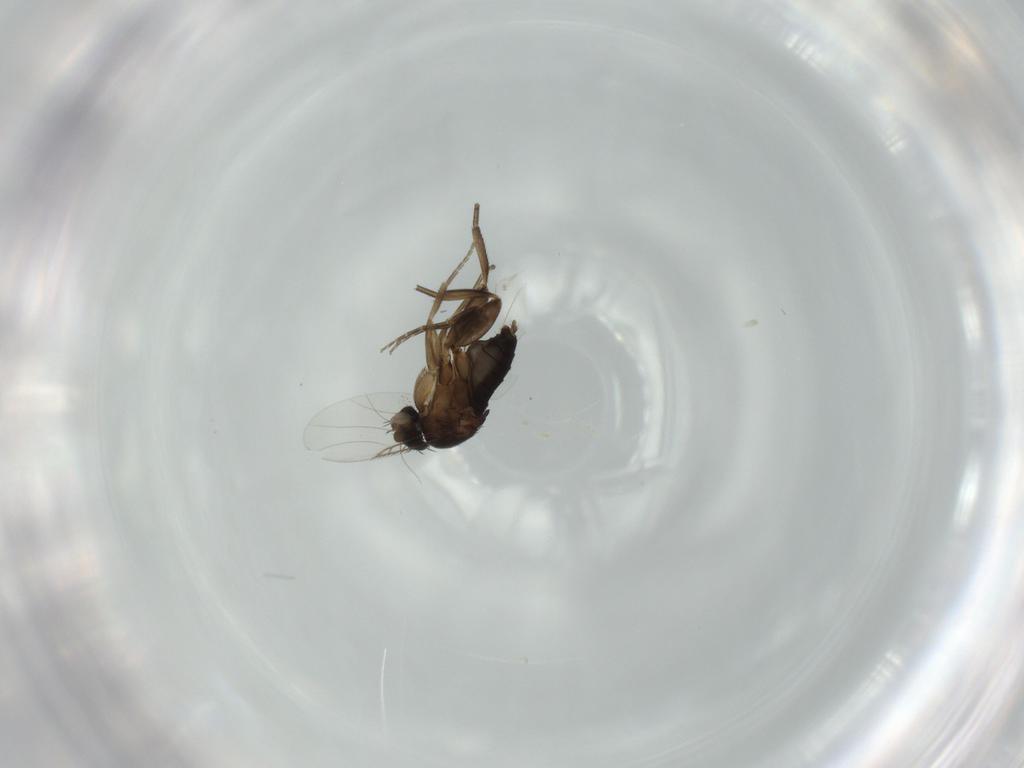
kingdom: Animalia
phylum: Arthropoda
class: Insecta
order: Diptera
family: Phoridae
